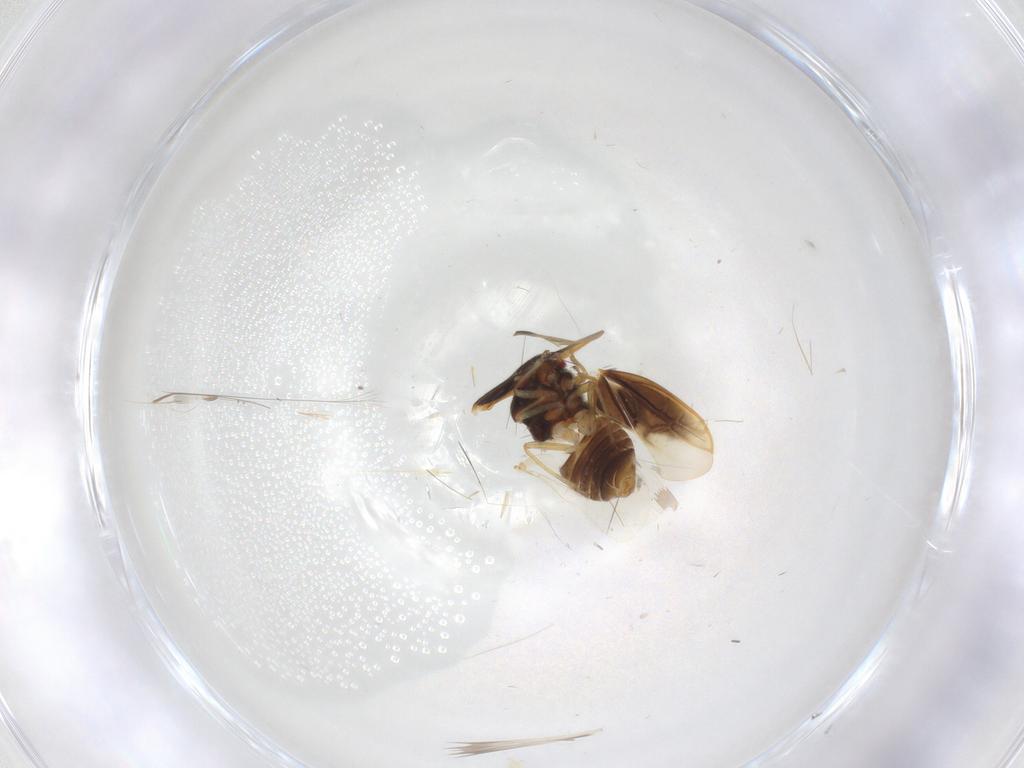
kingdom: Animalia
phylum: Arthropoda
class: Insecta
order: Hemiptera
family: Schizopteridae
